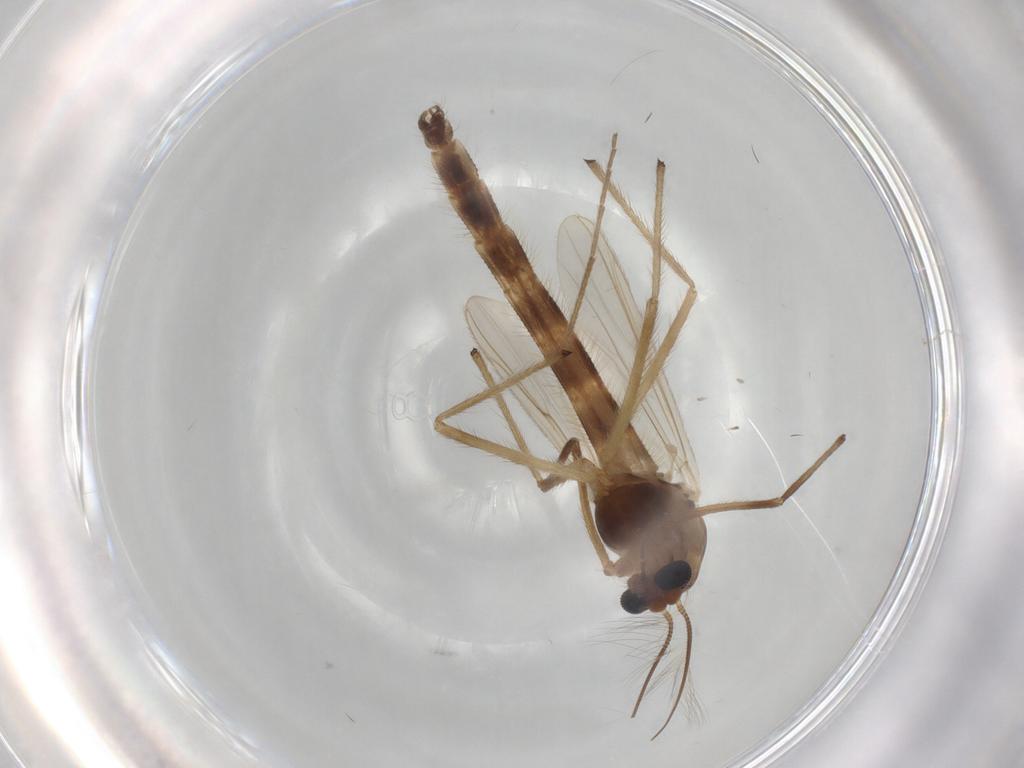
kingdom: Animalia
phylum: Arthropoda
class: Insecta
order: Diptera
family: Chironomidae
